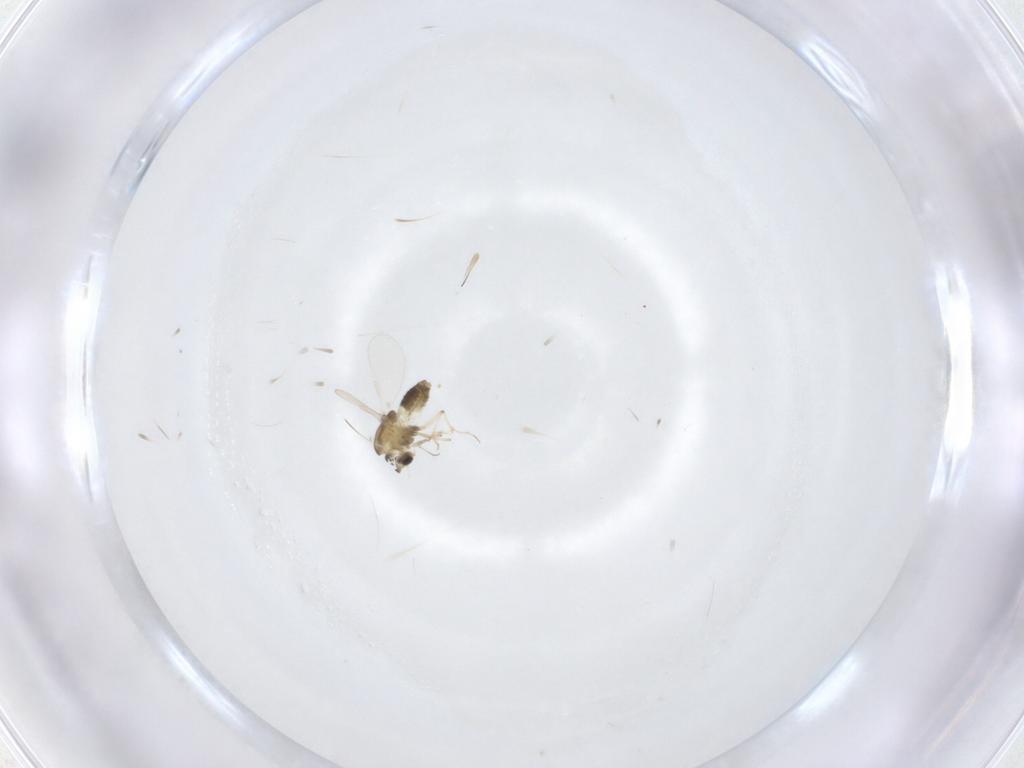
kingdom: Animalia
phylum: Arthropoda
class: Insecta
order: Diptera
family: Chironomidae
